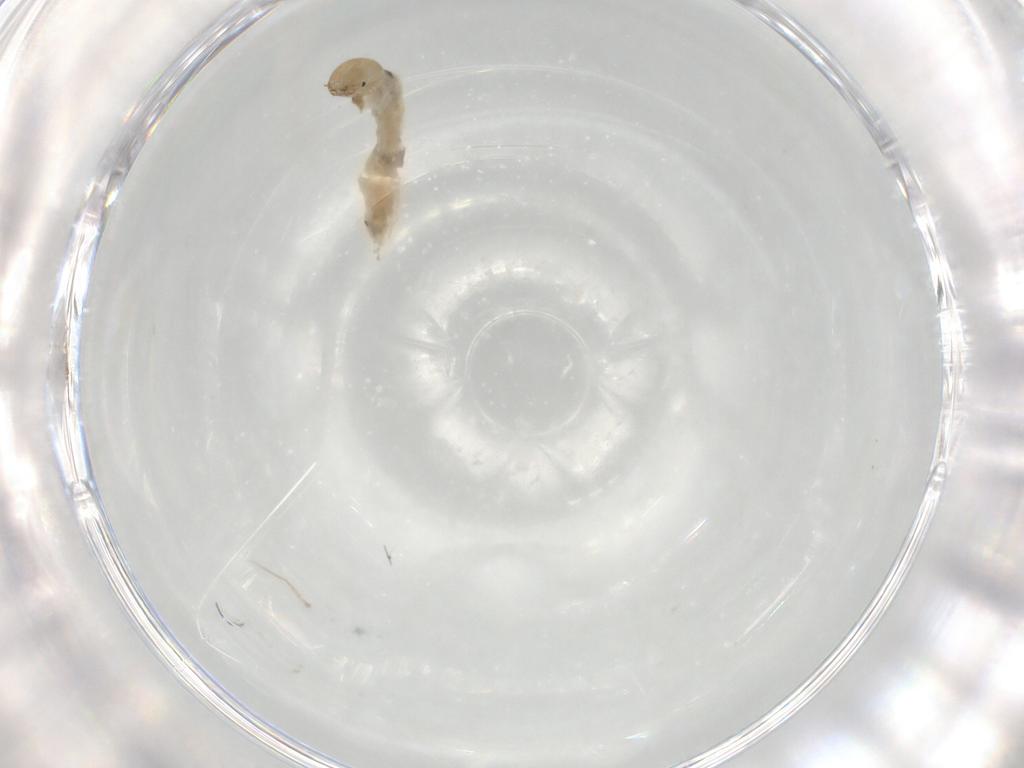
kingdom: Animalia
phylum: Arthropoda
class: Insecta
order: Diptera
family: Chironomidae
